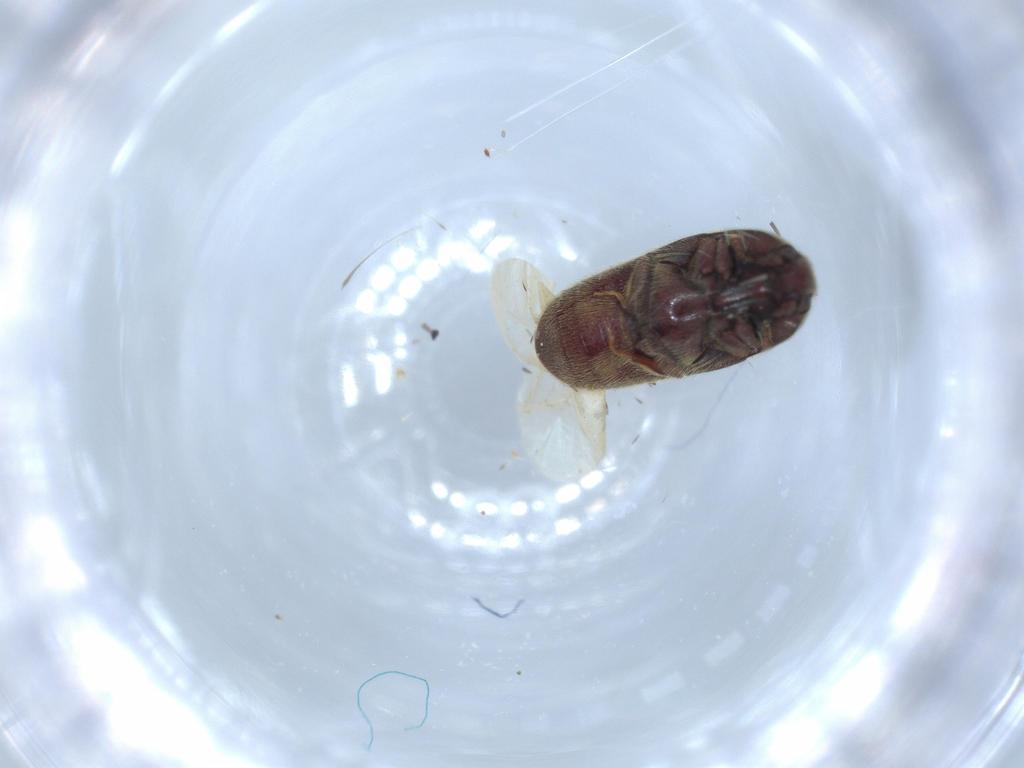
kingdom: Animalia
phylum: Arthropoda
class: Insecta
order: Coleoptera
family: Throscidae
